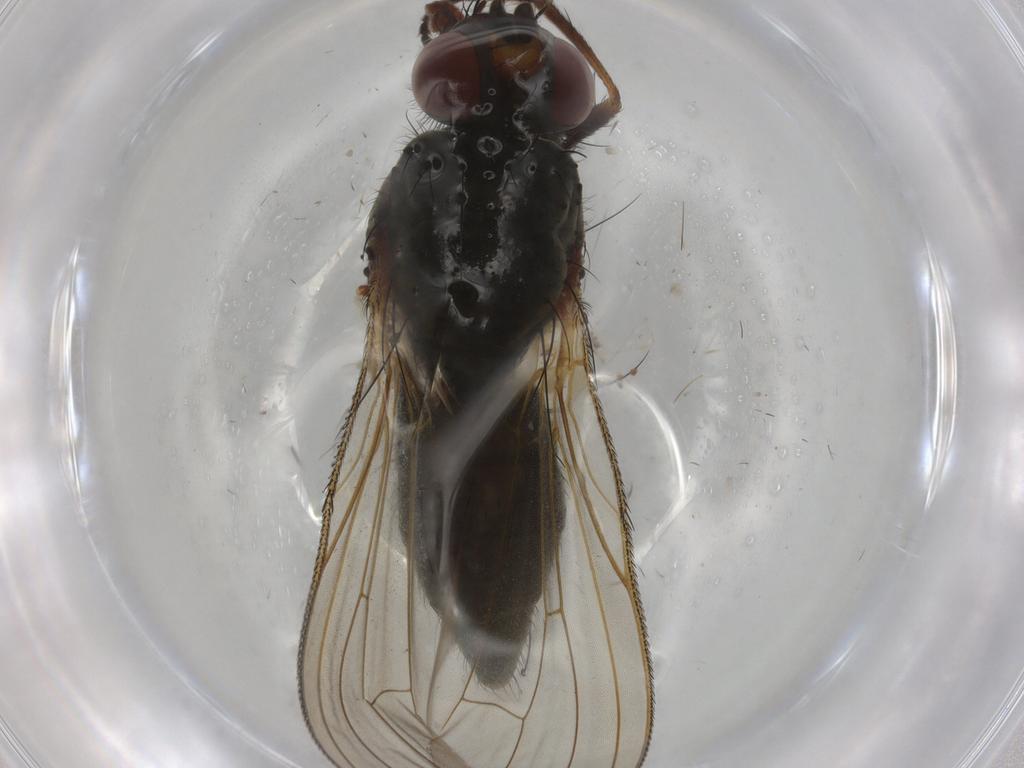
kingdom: Animalia
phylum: Arthropoda
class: Insecta
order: Diptera
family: Anthomyiidae
